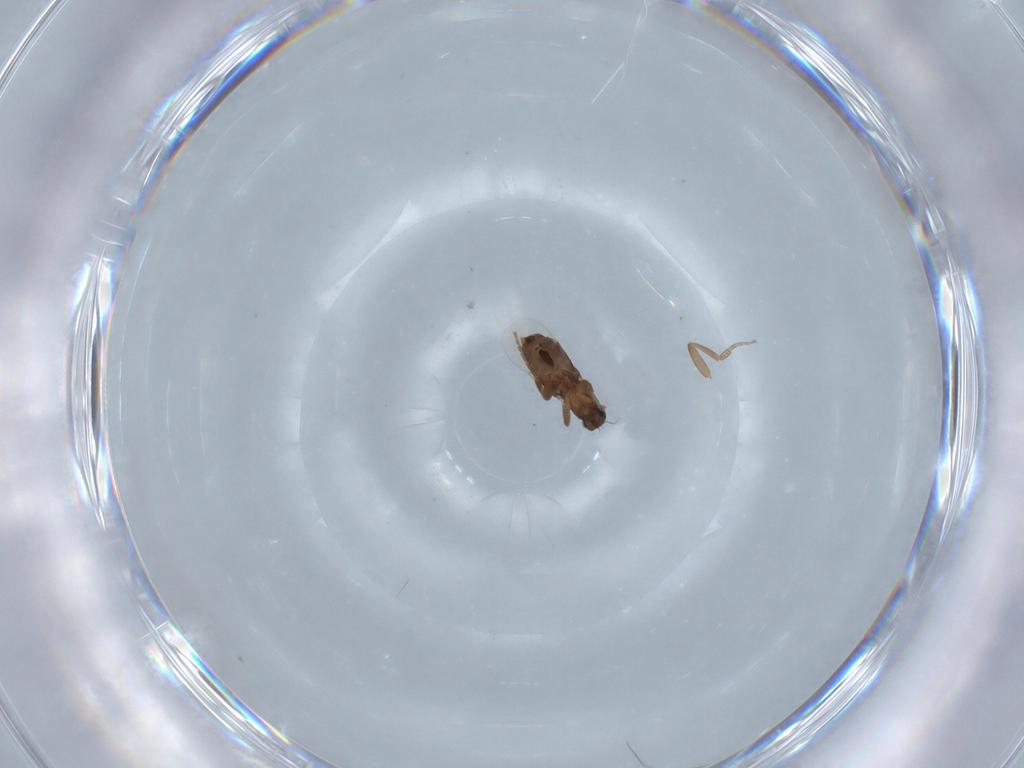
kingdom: Animalia
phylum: Arthropoda
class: Insecta
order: Diptera
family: Phoridae
